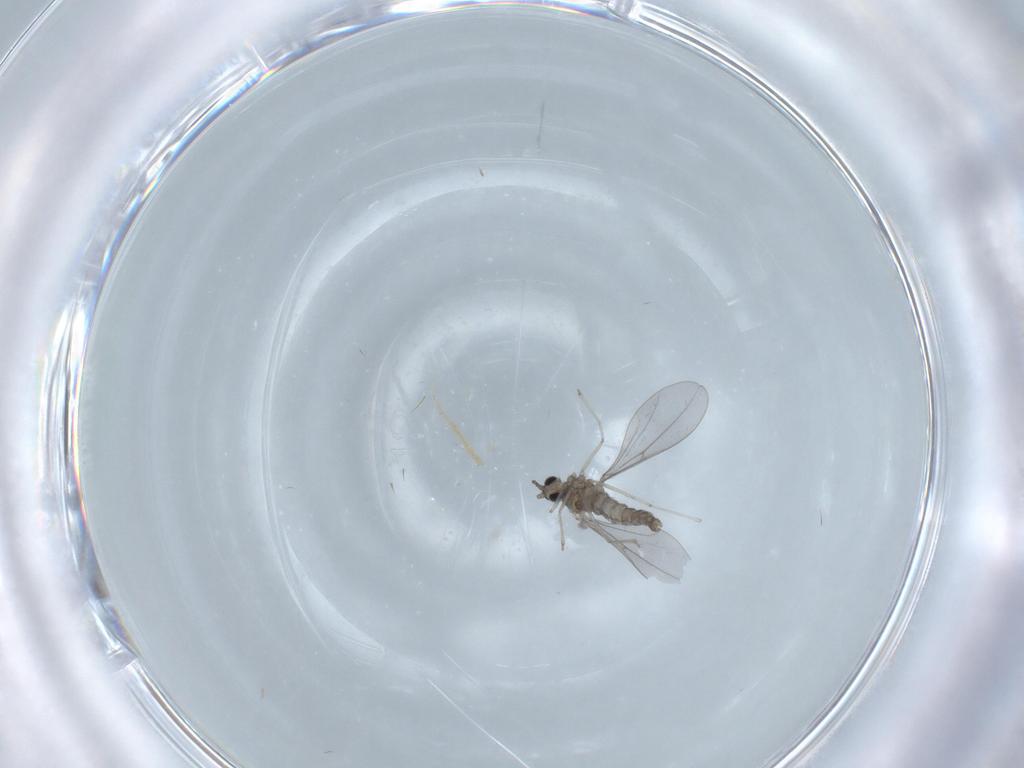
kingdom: Animalia
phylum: Arthropoda
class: Insecta
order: Diptera
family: Cecidomyiidae
